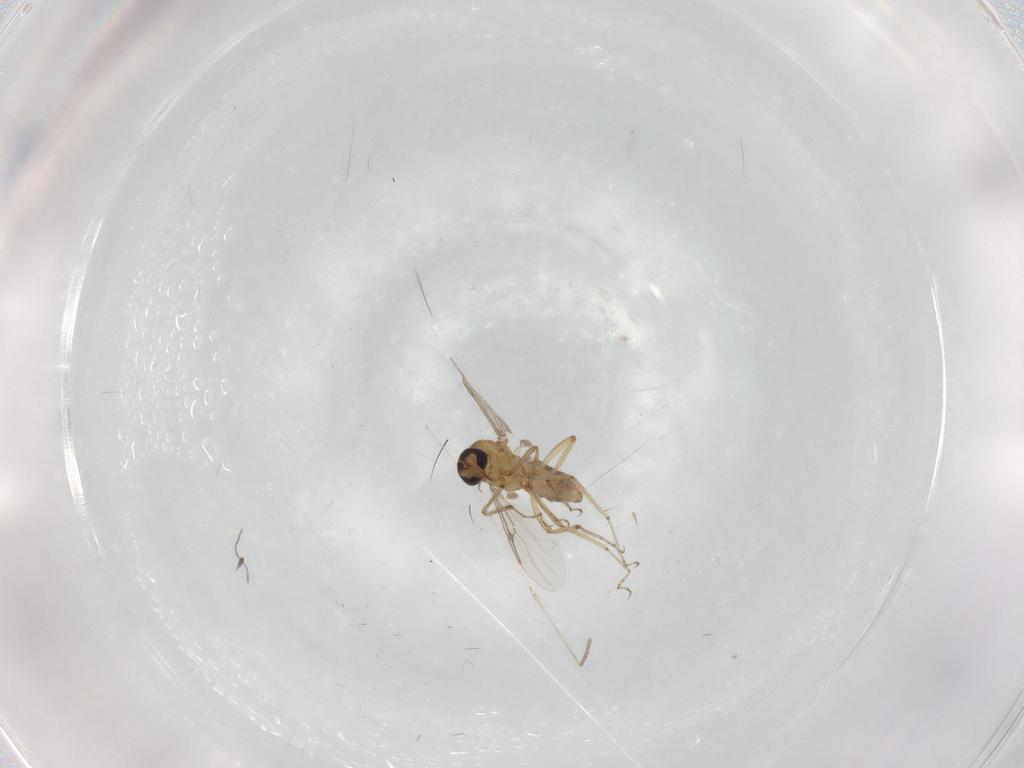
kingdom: Animalia
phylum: Arthropoda
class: Insecta
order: Diptera
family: Ceratopogonidae
